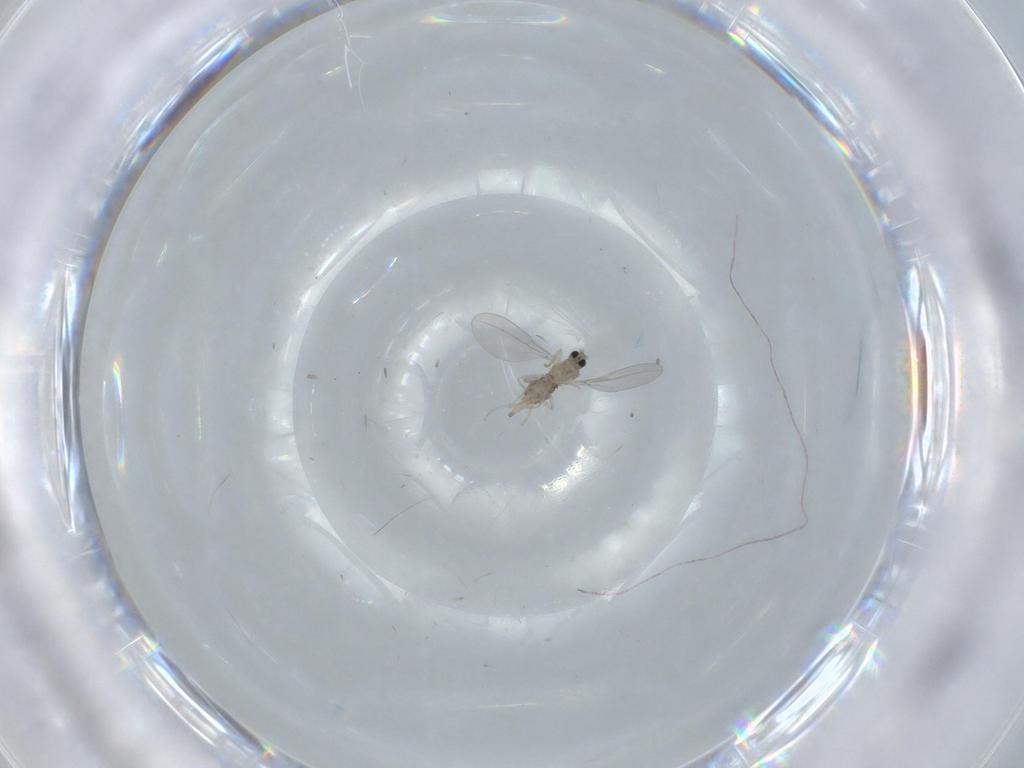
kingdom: Animalia
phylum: Arthropoda
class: Insecta
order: Diptera
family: Cecidomyiidae
